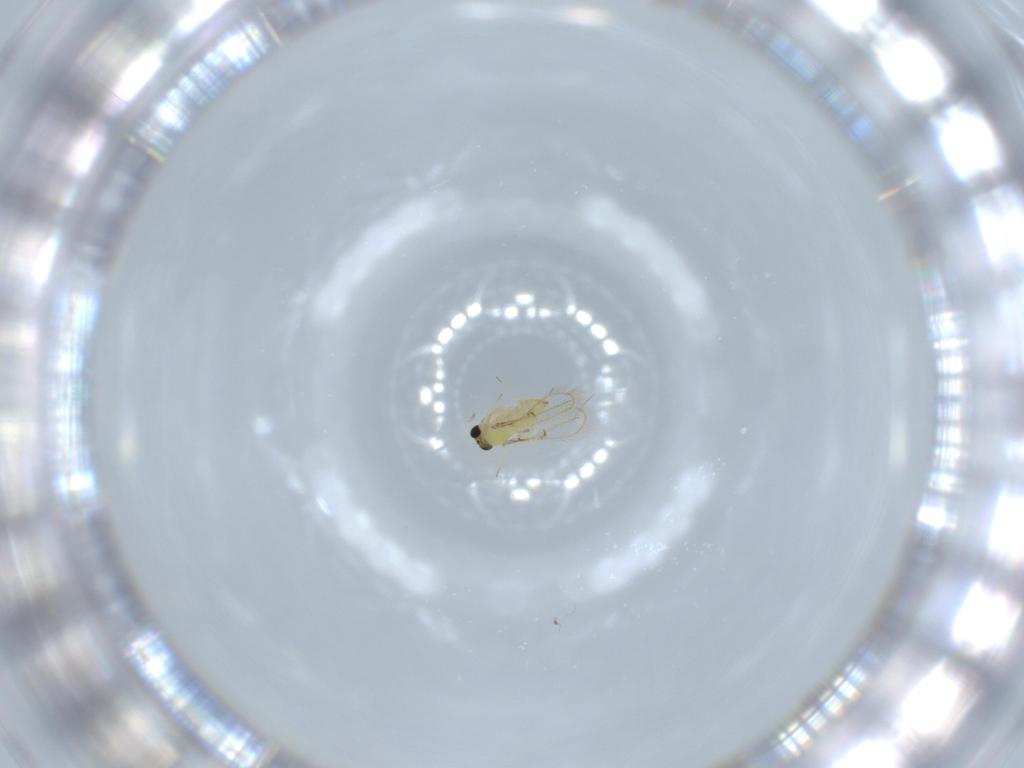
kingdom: Animalia
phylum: Arthropoda
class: Insecta
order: Hymenoptera
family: Trichogrammatidae
